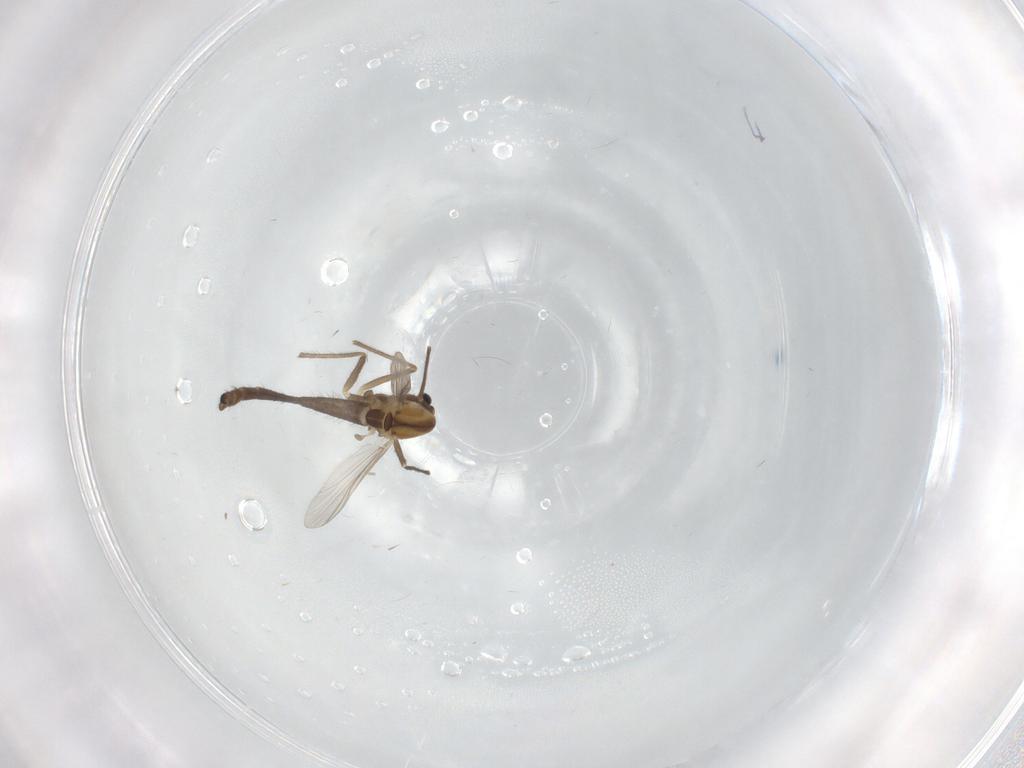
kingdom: Animalia
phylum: Arthropoda
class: Insecta
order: Diptera
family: Chironomidae
